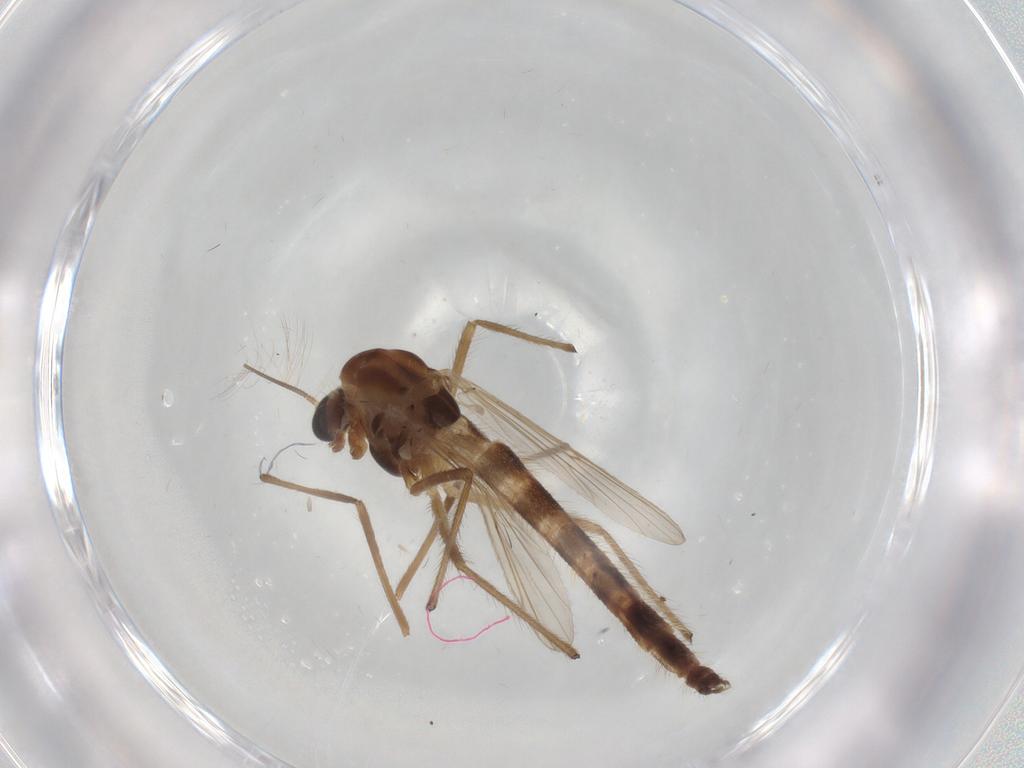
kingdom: Animalia
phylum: Arthropoda
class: Insecta
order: Diptera
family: Chironomidae
